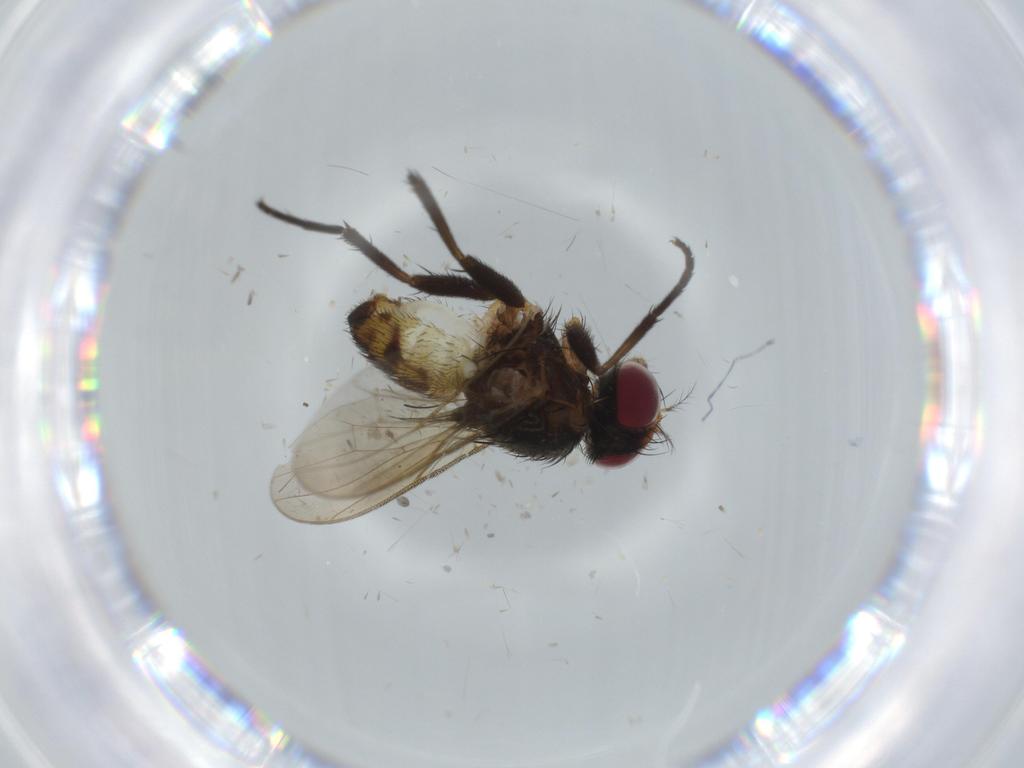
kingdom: Animalia
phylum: Arthropoda
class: Insecta
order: Diptera
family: Anthomyiidae
